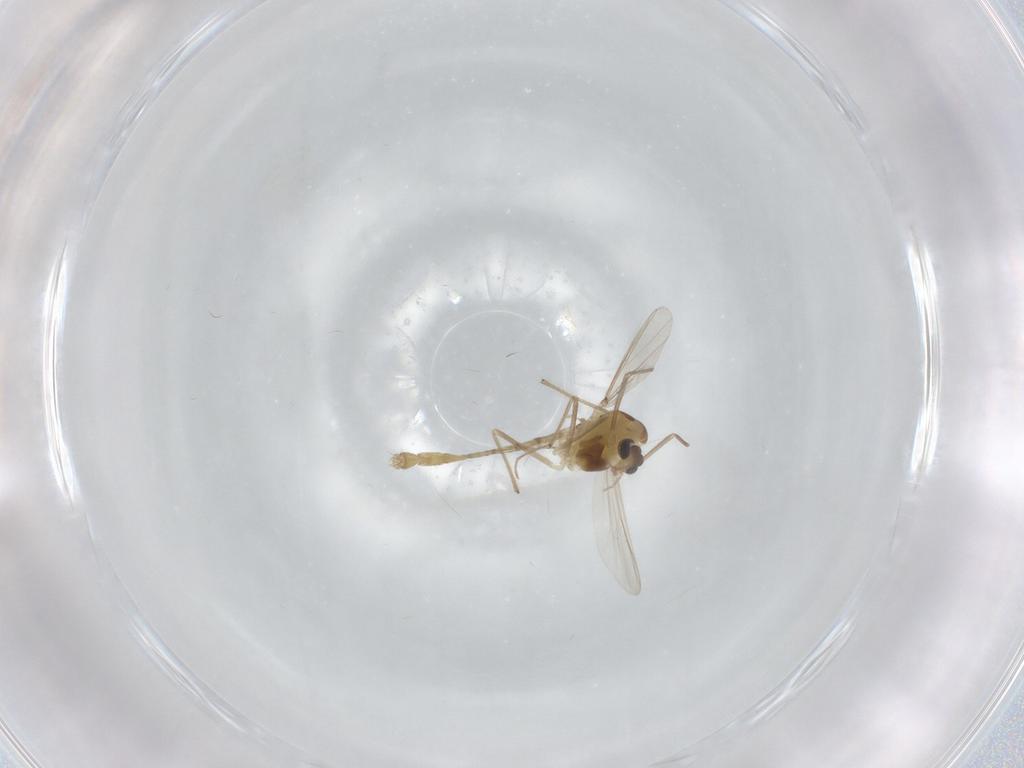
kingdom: Animalia
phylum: Arthropoda
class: Insecta
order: Diptera
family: Chironomidae
